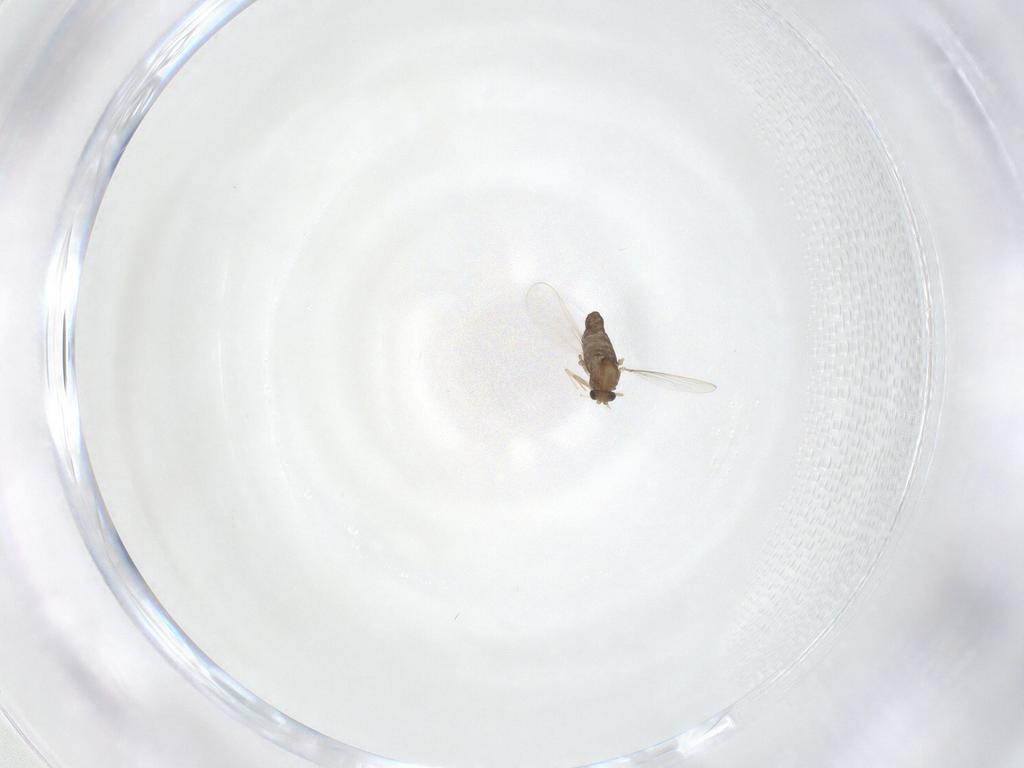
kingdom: Animalia
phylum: Arthropoda
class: Insecta
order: Diptera
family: Chironomidae
